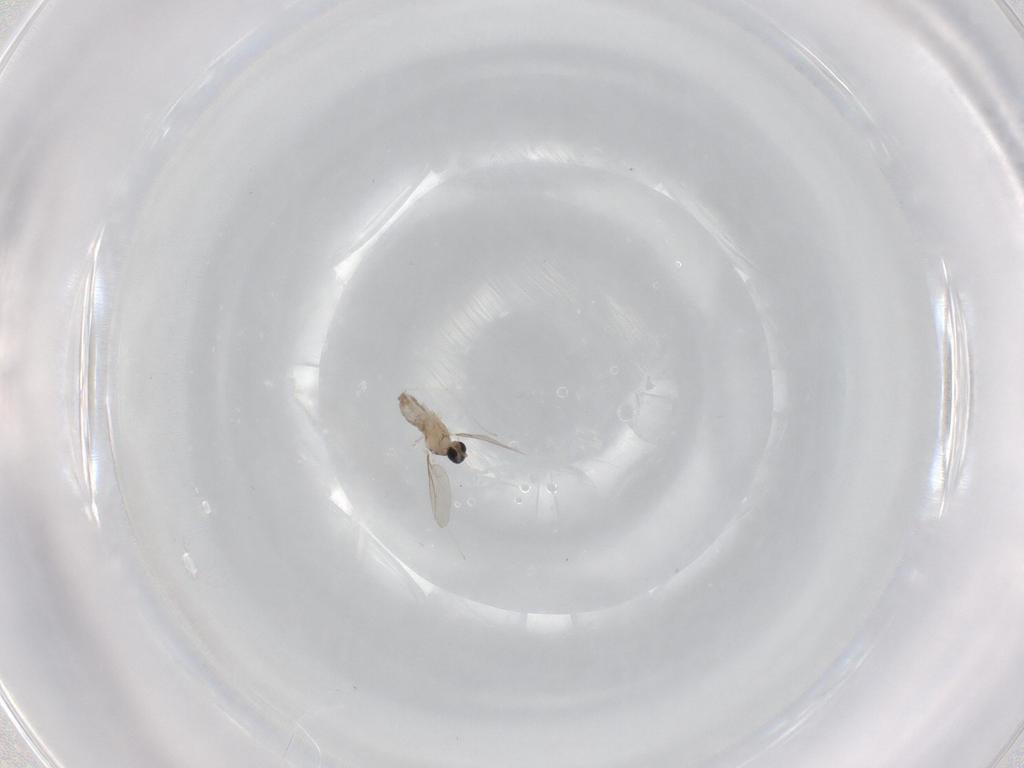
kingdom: Animalia
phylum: Arthropoda
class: Insecta
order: Diptera
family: Cecidomyiidae
